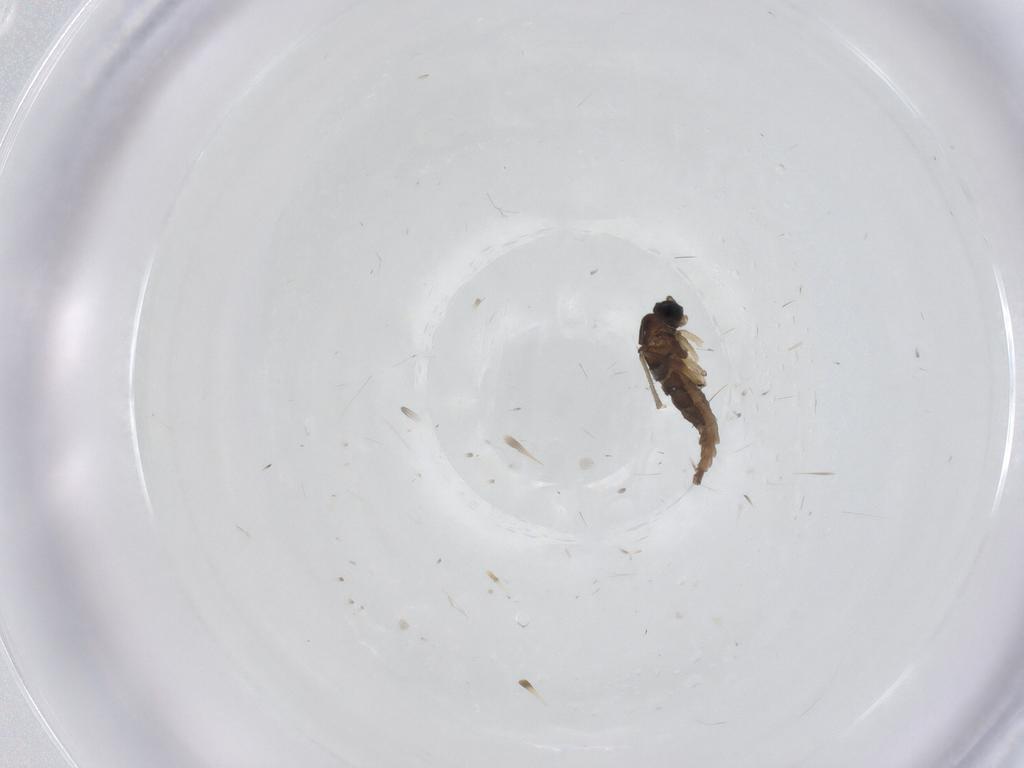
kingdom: Animalia
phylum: Arthropoda
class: Insecta
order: Diptera
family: Sciaridae
